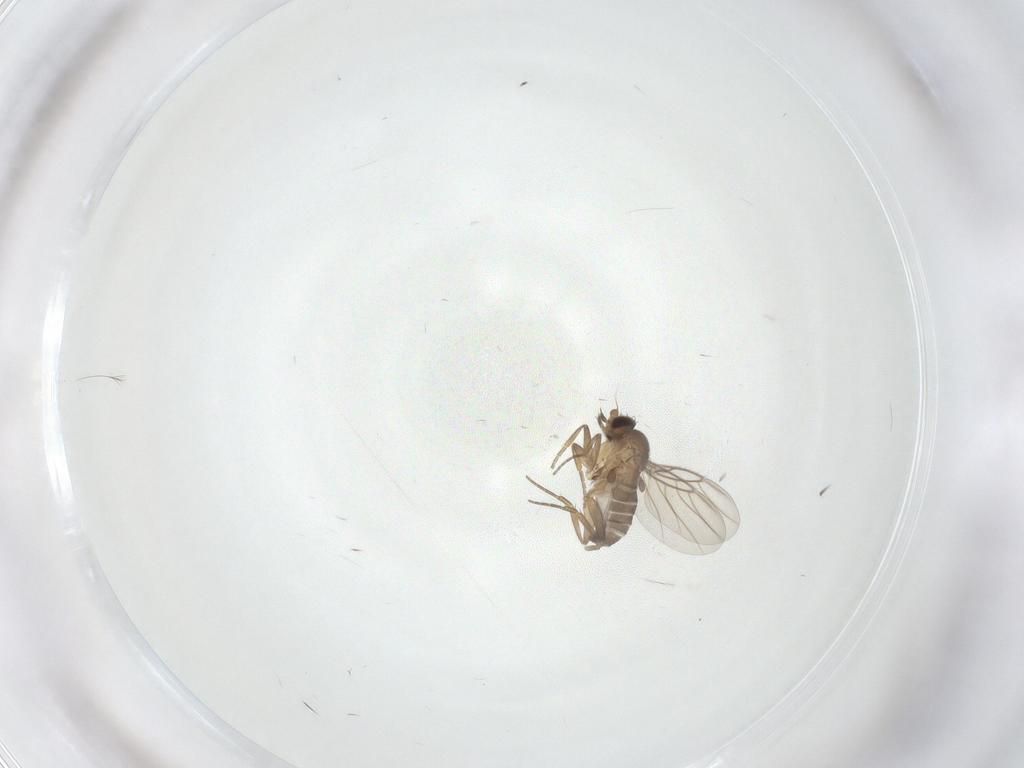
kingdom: Animalia
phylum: Arthropoda
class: Insecta
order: Diptera
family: Phoridae
